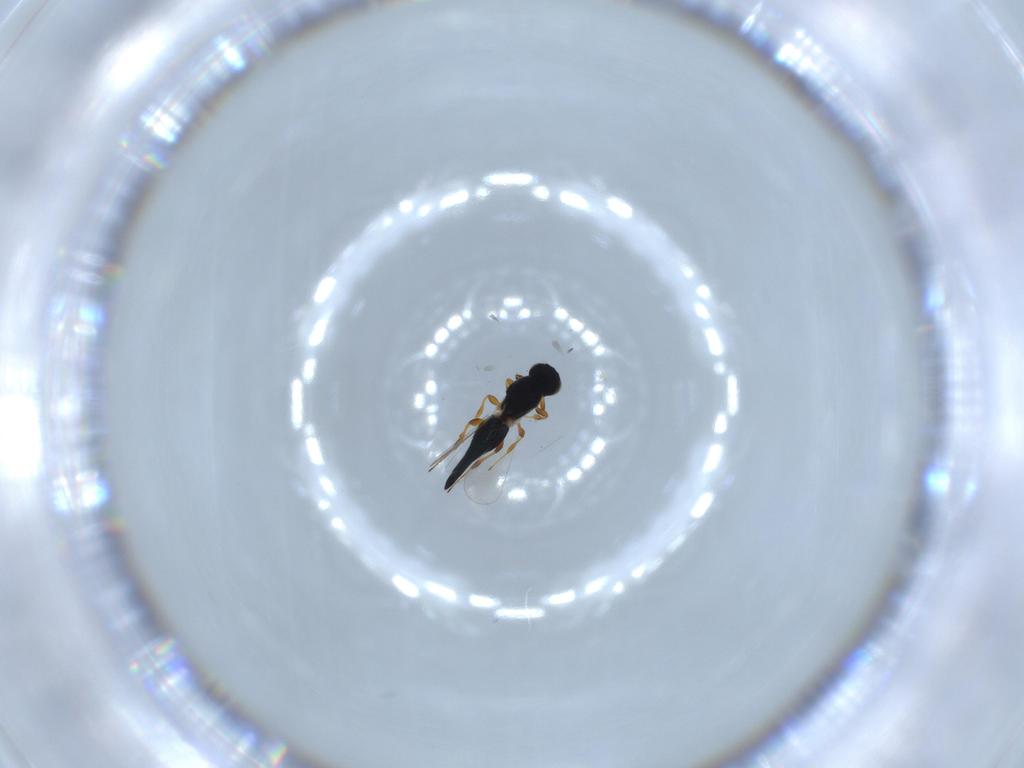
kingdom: Animalia
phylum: Arthropoda
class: Insecta
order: Hymenoptera
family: Platygastridae
